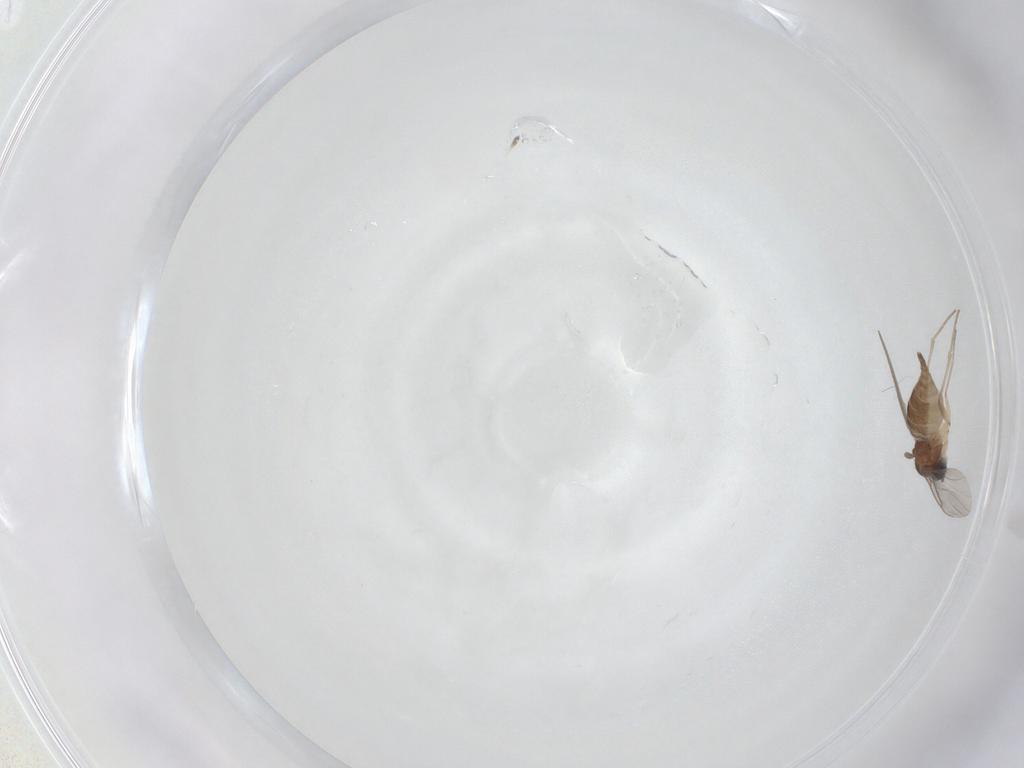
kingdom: Animalia
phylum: Arthropoda
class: Insecta
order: Diptera
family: Sciaridae
